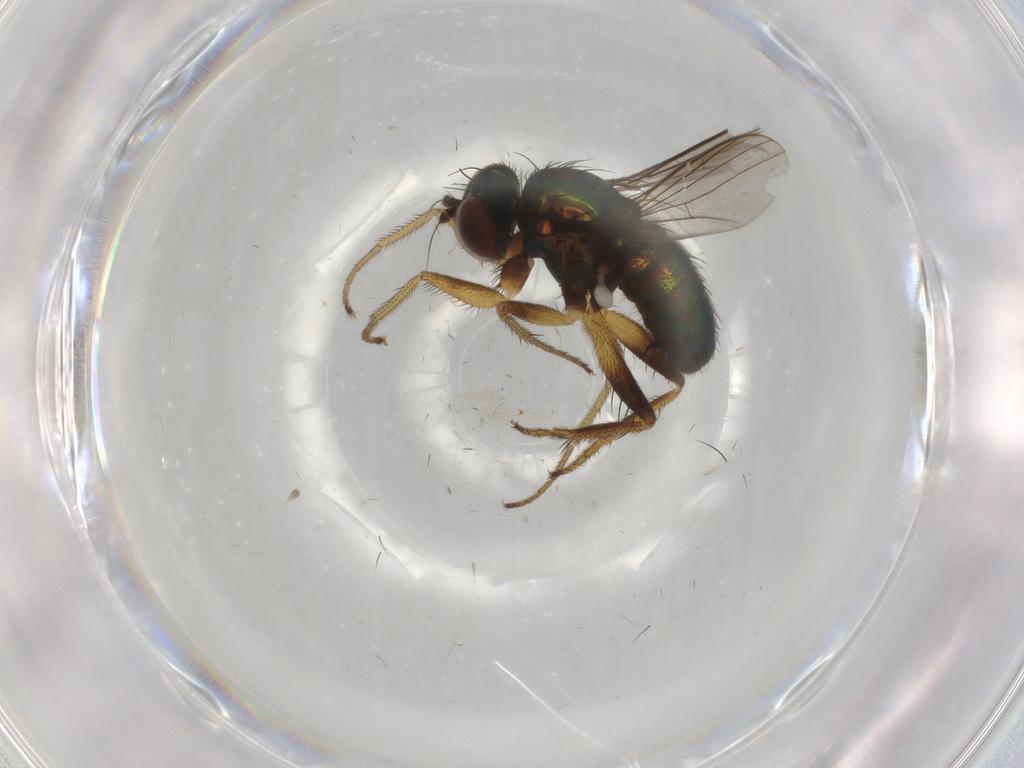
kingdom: Animalia
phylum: Arthropoda
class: Insecta
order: Diptera
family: Dolichopodidae
